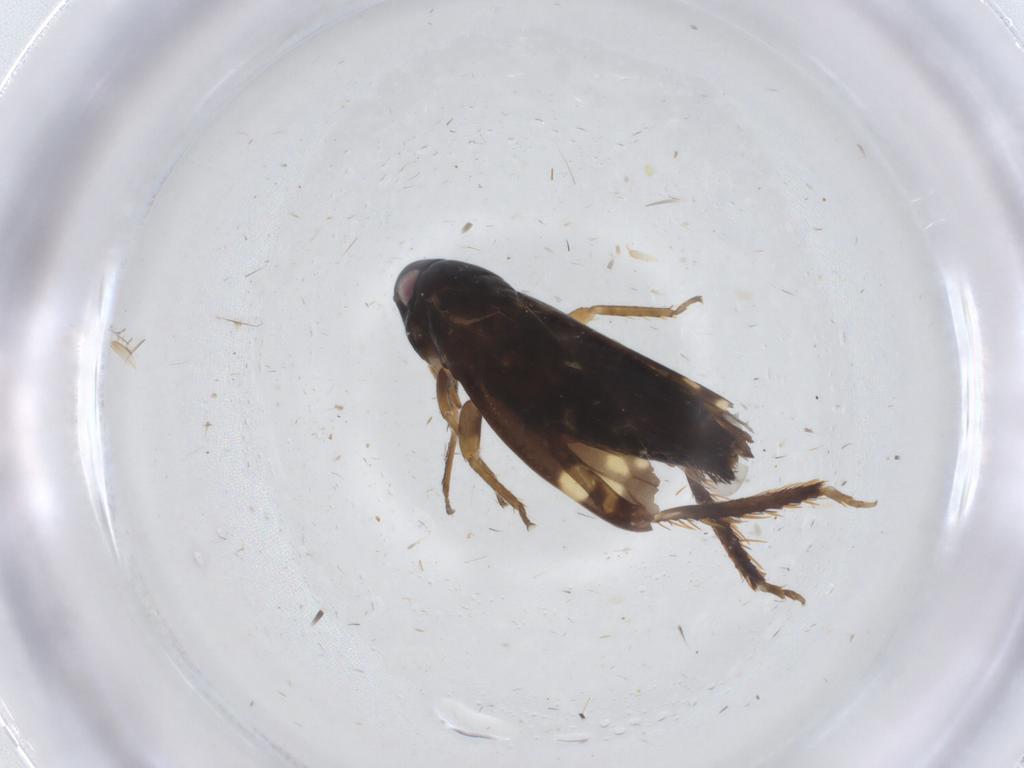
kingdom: Animalia
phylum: Arthropoda
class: Insecta
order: Hemiptera
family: Cicadellidae
